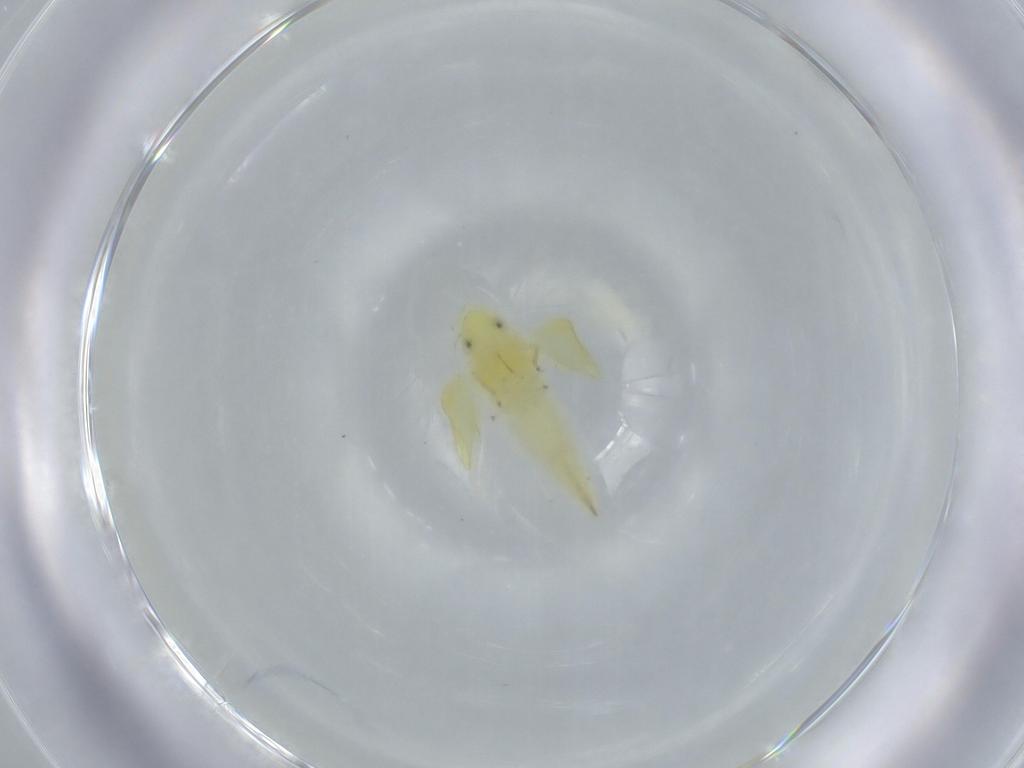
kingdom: Animalia
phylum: Arthropoda
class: Insecta
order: Hemiptera
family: Cicadellidae
